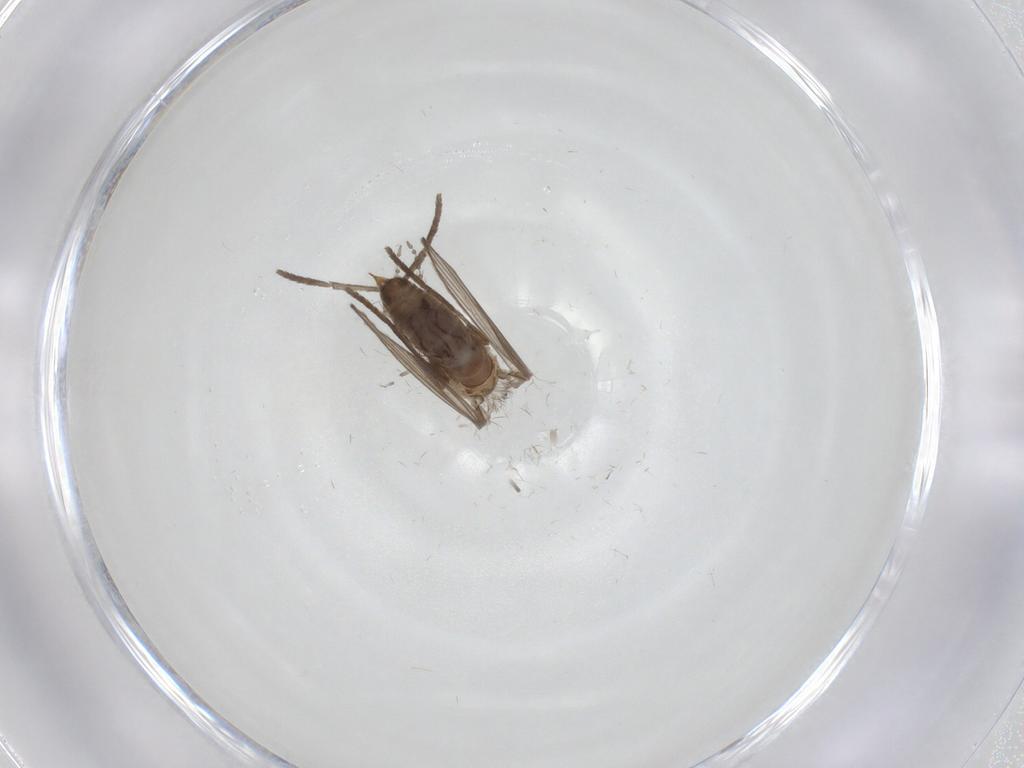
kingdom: Animalia
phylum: Arthropoda
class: Insecta
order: Diptera
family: Psychodidae
